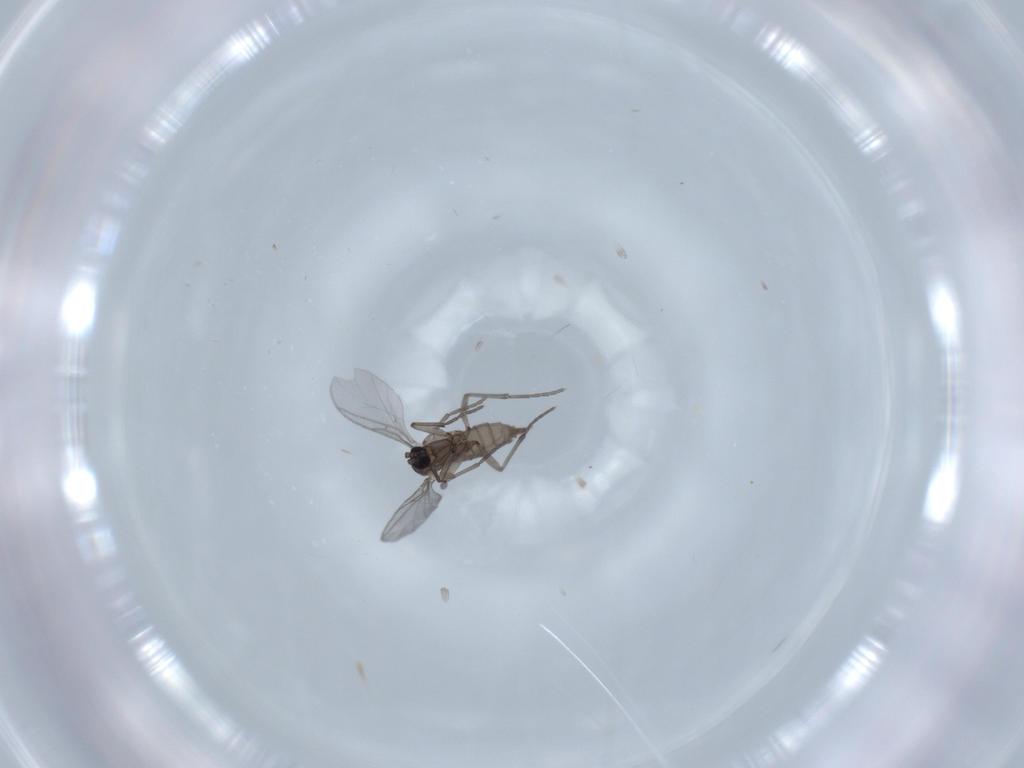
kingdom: Animalia
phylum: Arthropoda
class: Insecta
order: Diptera
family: Sciaridae
